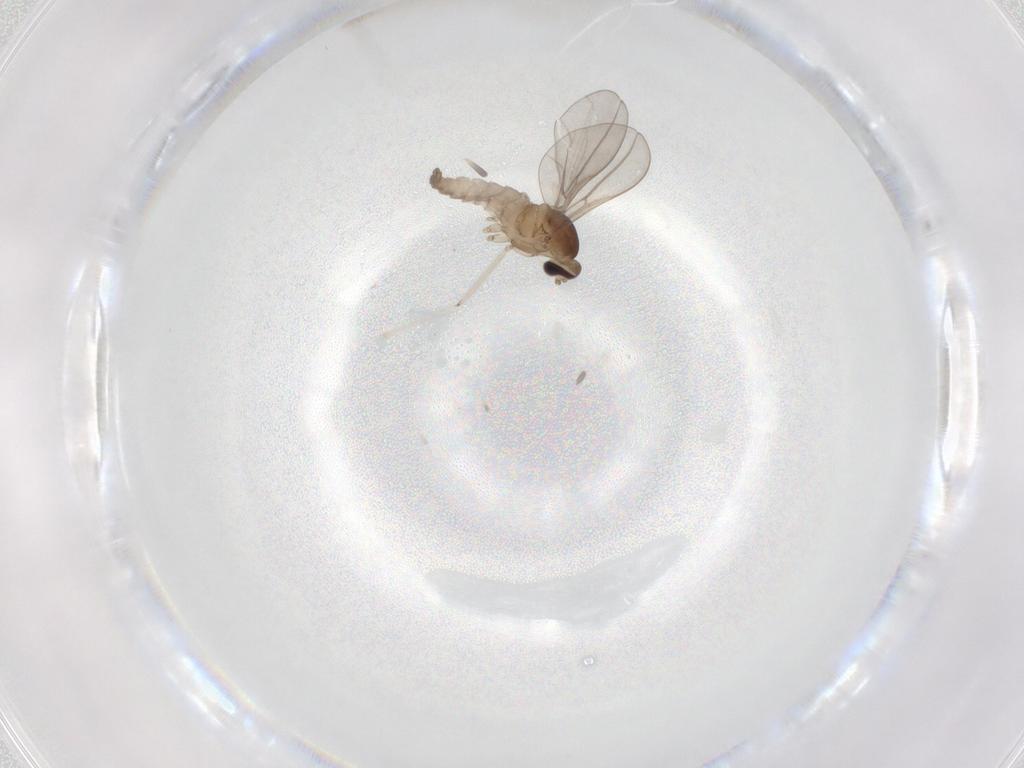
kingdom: Animalia
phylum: Arthropoda
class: Insecta
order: Diptera
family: Cecidomyiidae
